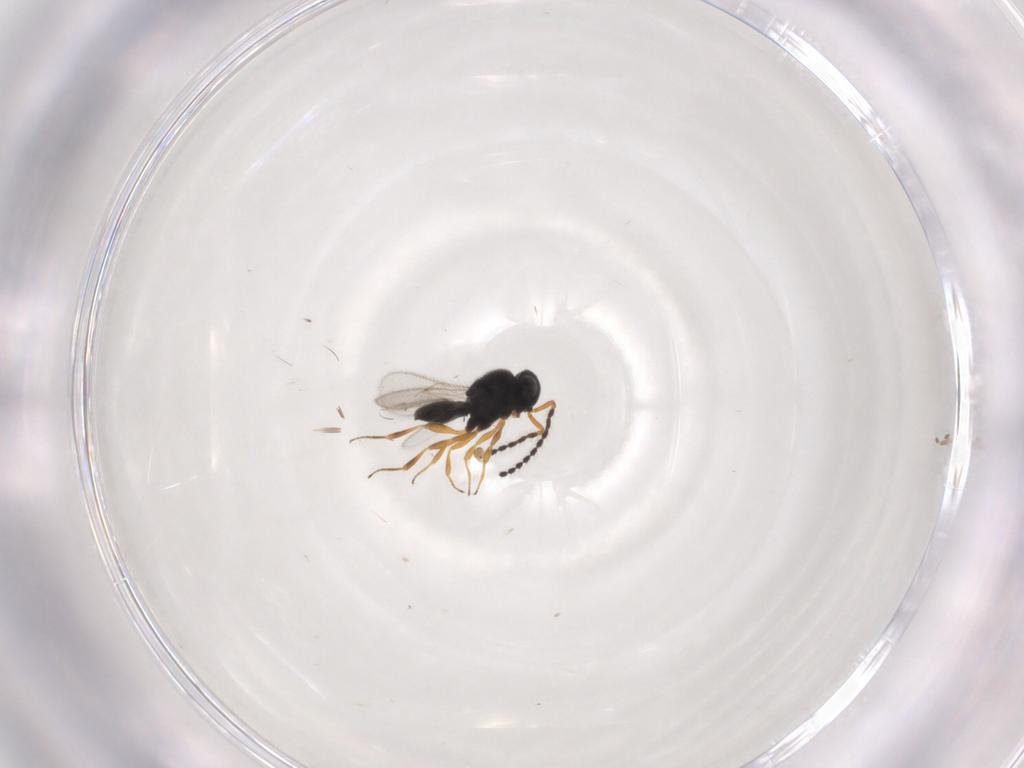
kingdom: Animalia
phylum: Arthropoda
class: Insecta
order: Hymenoptera
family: Scelionidae
